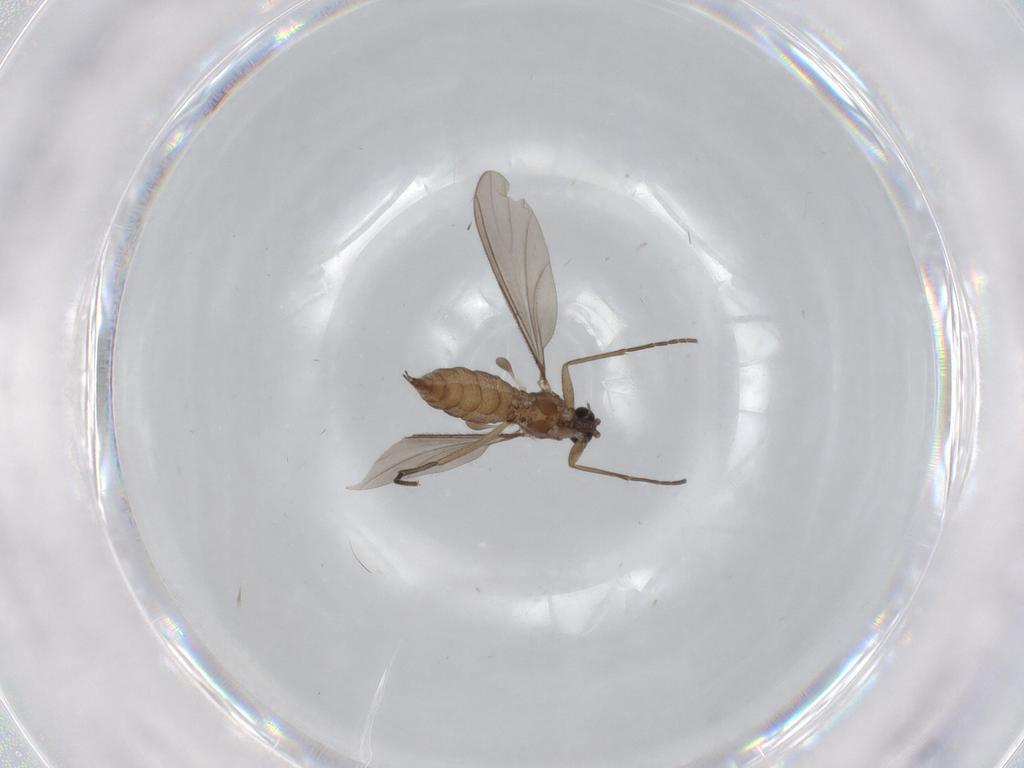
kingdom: Animalia
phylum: Arthropoda
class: Insecta
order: Diptera
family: Sciaridae
